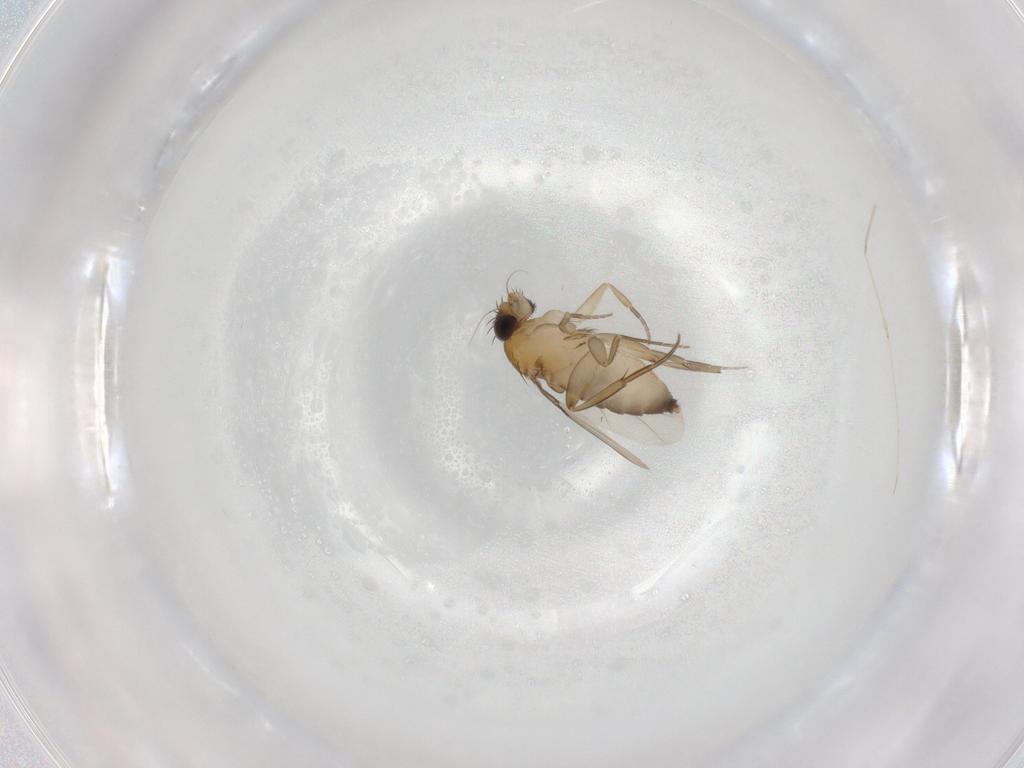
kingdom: Animalia
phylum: Arthropoda
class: Insecta
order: Diptera
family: Phoridae
